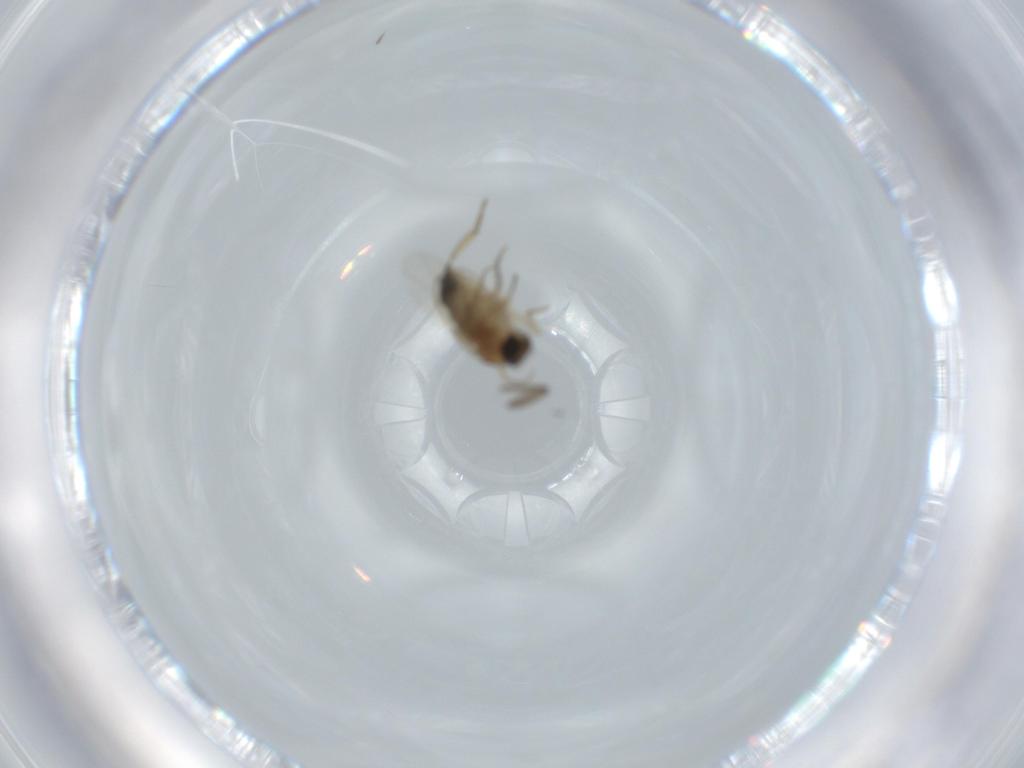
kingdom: Animalia
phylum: Arthropoda
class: Insecta
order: Diptera
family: Phoridae
